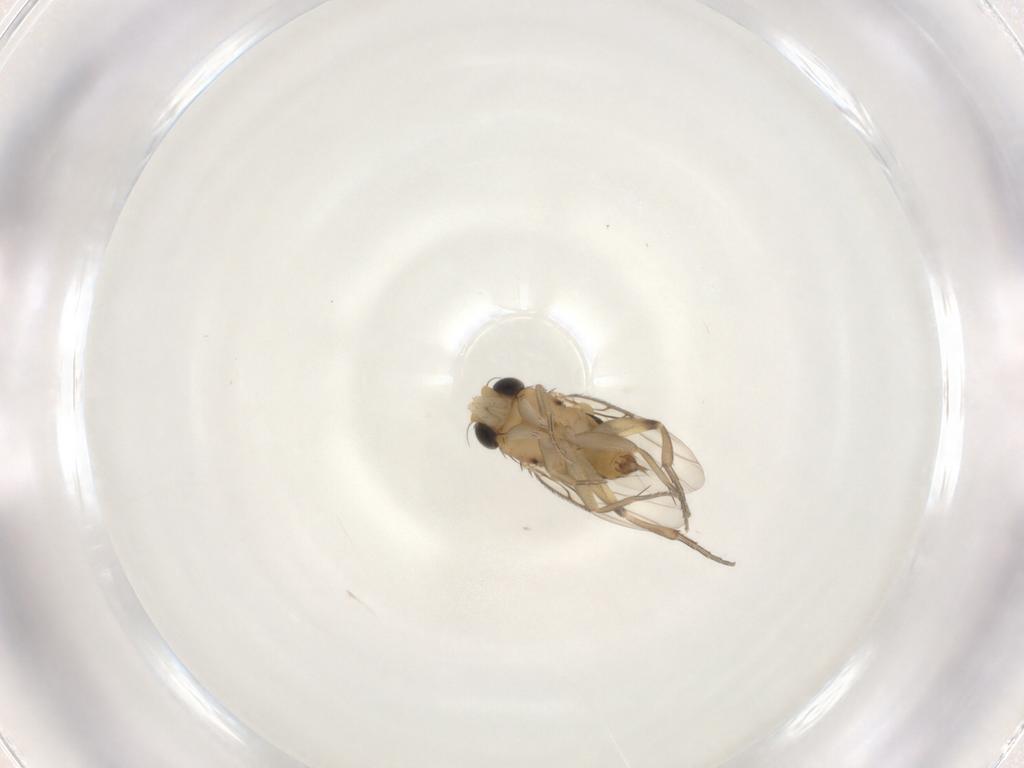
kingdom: Animalia
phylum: Arthropoda
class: Insecta
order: Diptera
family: Phoridae
